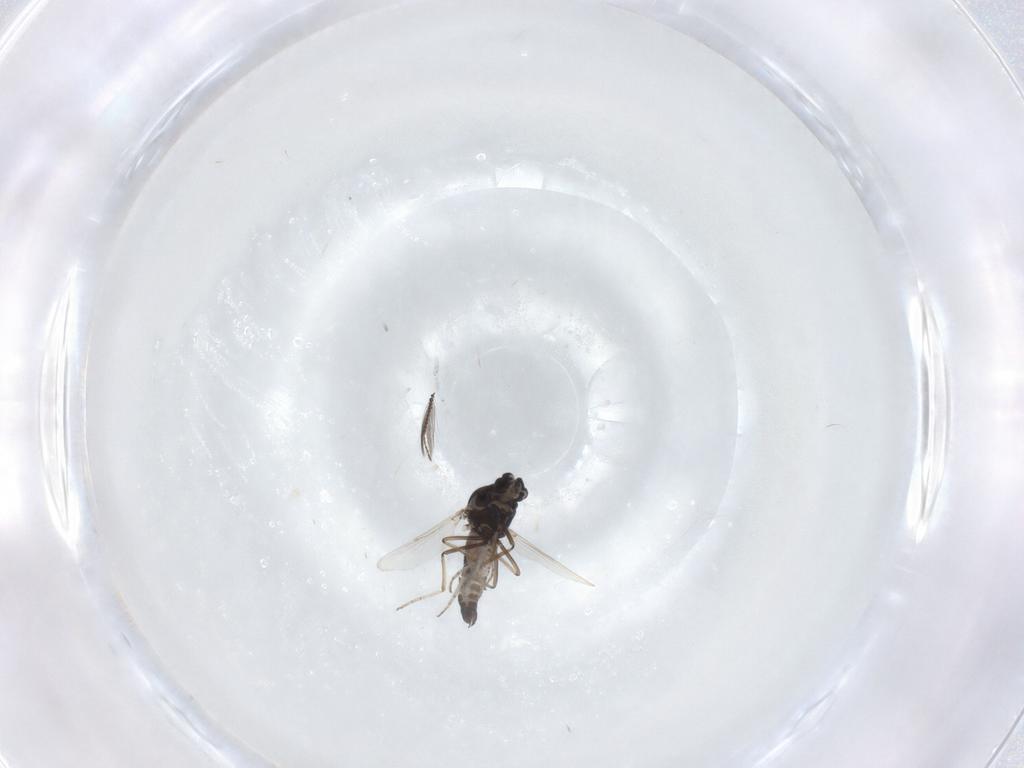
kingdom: Animalia
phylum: Arthropoda
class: Insecta
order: Diptera
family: Ceratopogonidae
